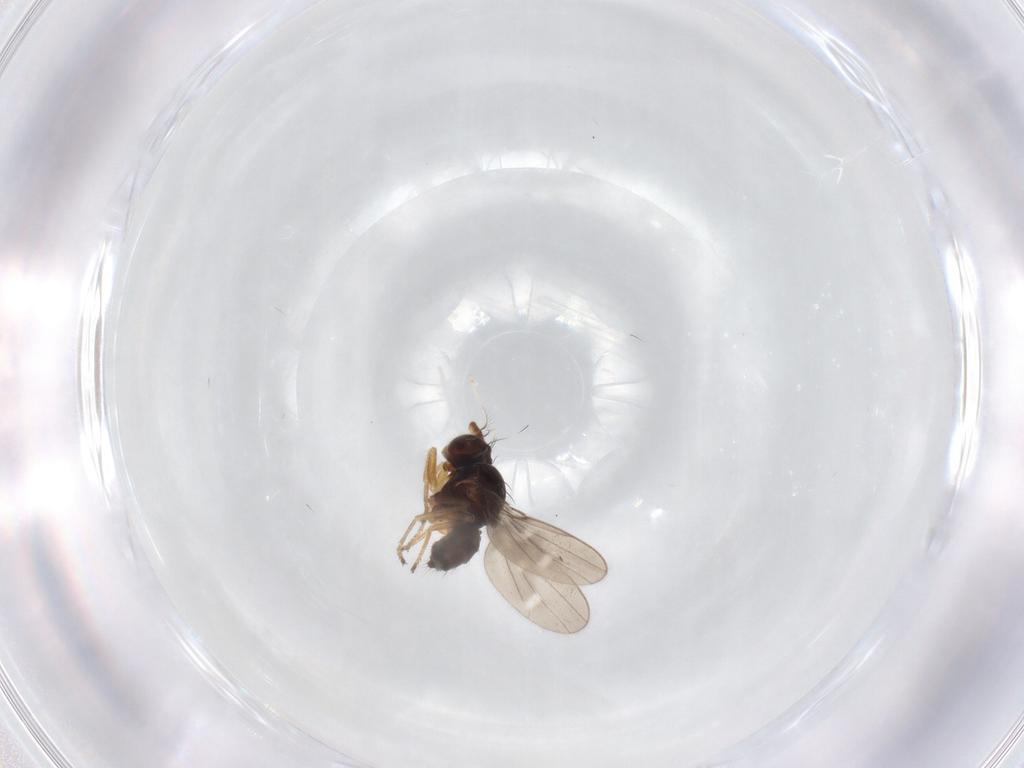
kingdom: Animalia
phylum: Arthropoda
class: Insecta
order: Diptera
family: Ephydridae
